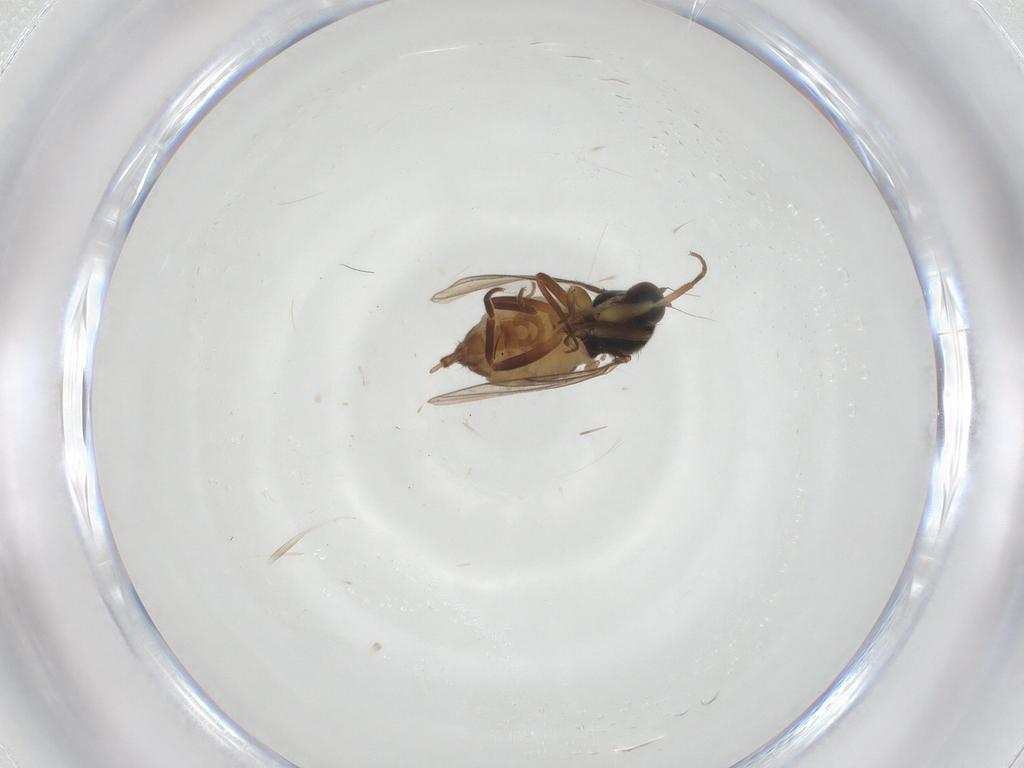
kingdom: Animalia
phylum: Arthropoda
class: Insecta
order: Diptera
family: Hybotidae
